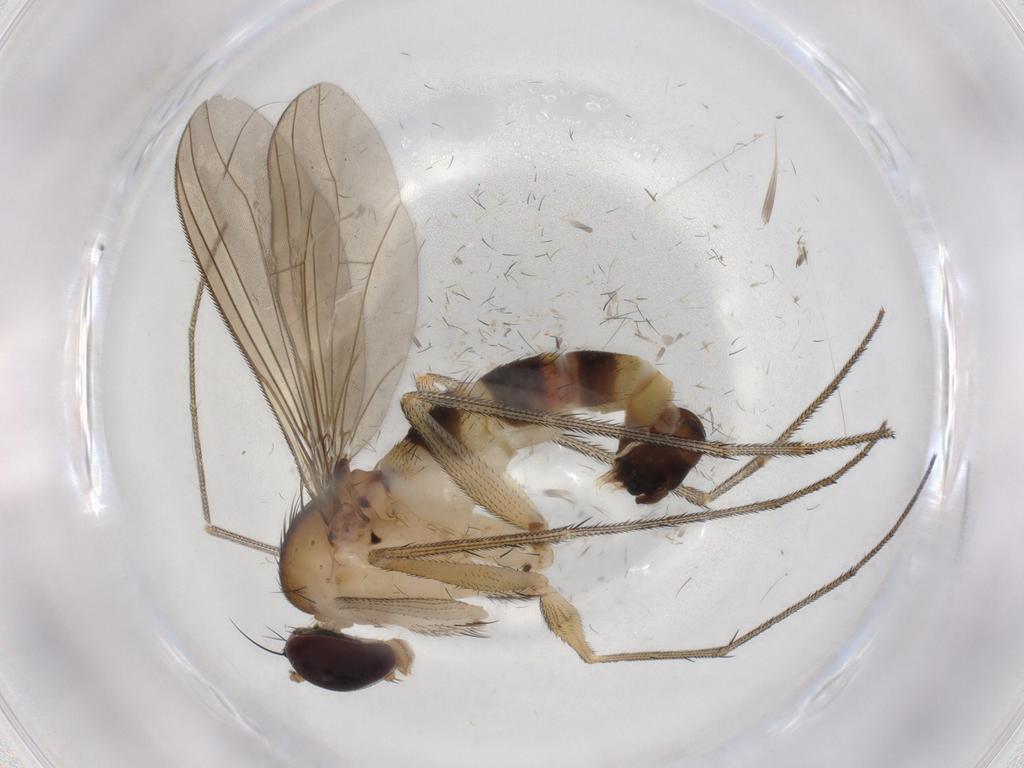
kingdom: Animalia
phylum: Arthropoda
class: Insecta
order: Diptera
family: Dolichopodidae
